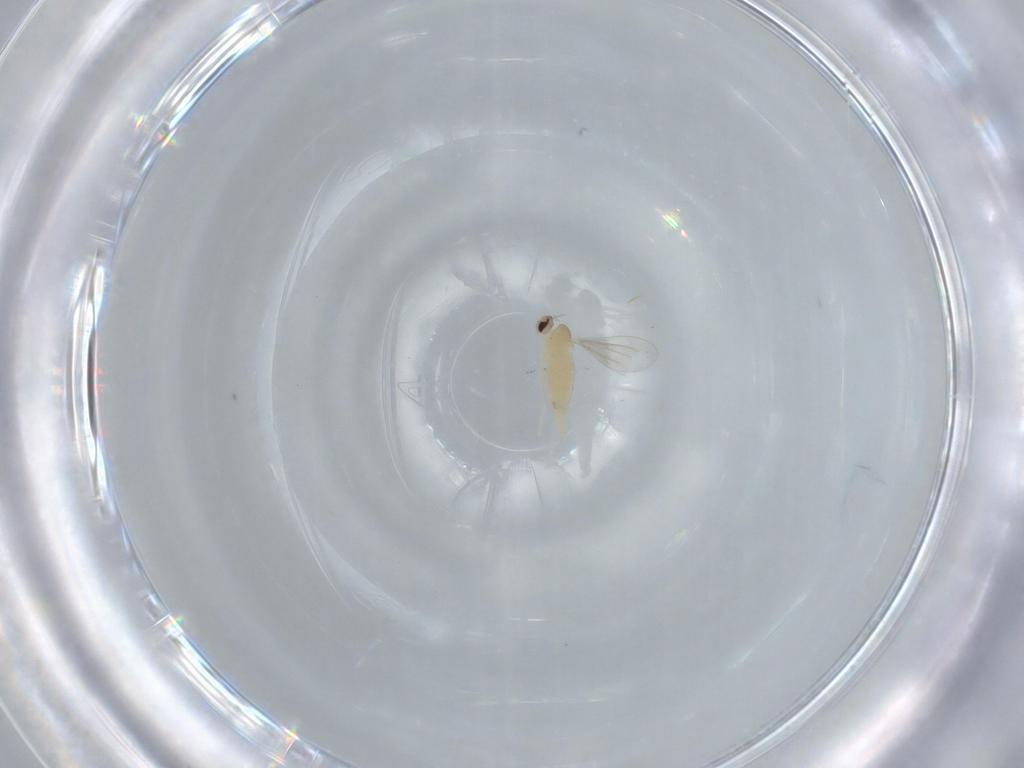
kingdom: Animalia
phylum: Arthropoda
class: Insecta
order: Diptera
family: Cecidomyiidae
